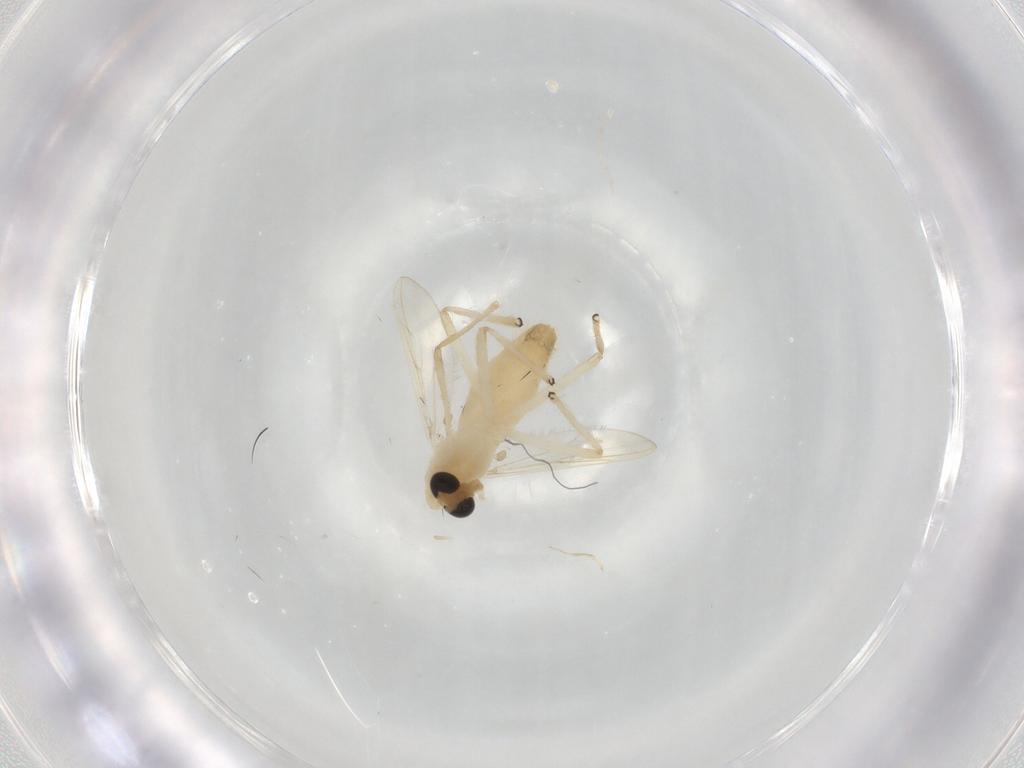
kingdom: Animalia
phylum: Arthropoda
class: Insecta
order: Diptera
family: Chironomidae
